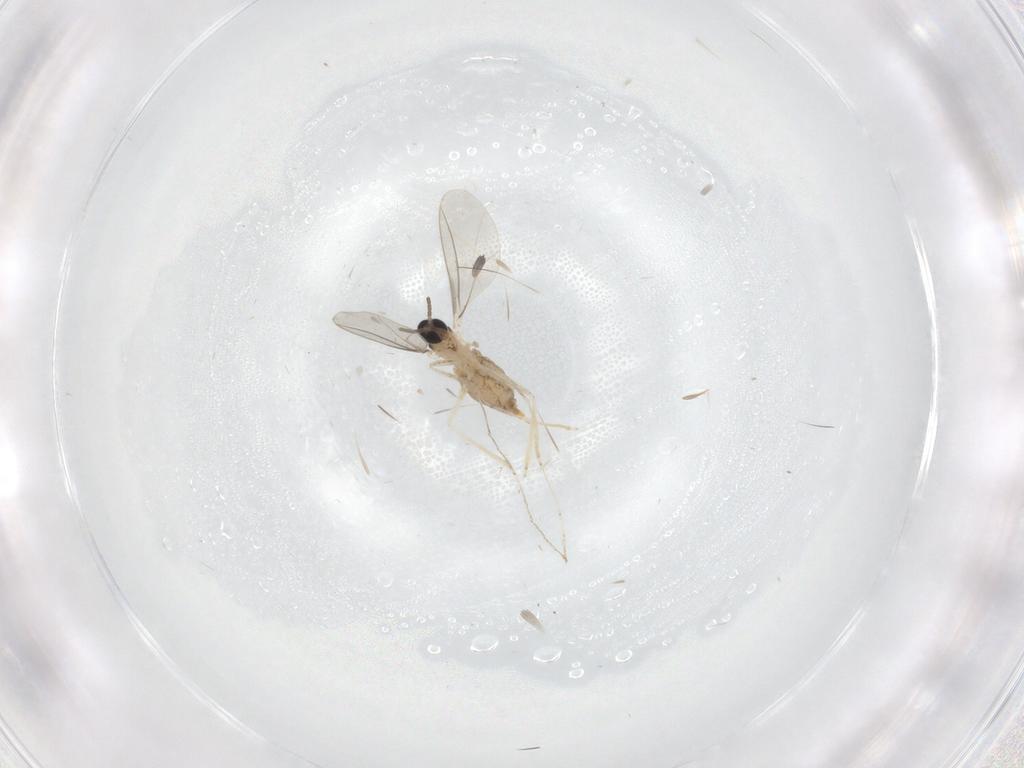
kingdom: Animalia
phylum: Arthropoda
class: Insecta
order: Diptera
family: Cecidomyiidae
